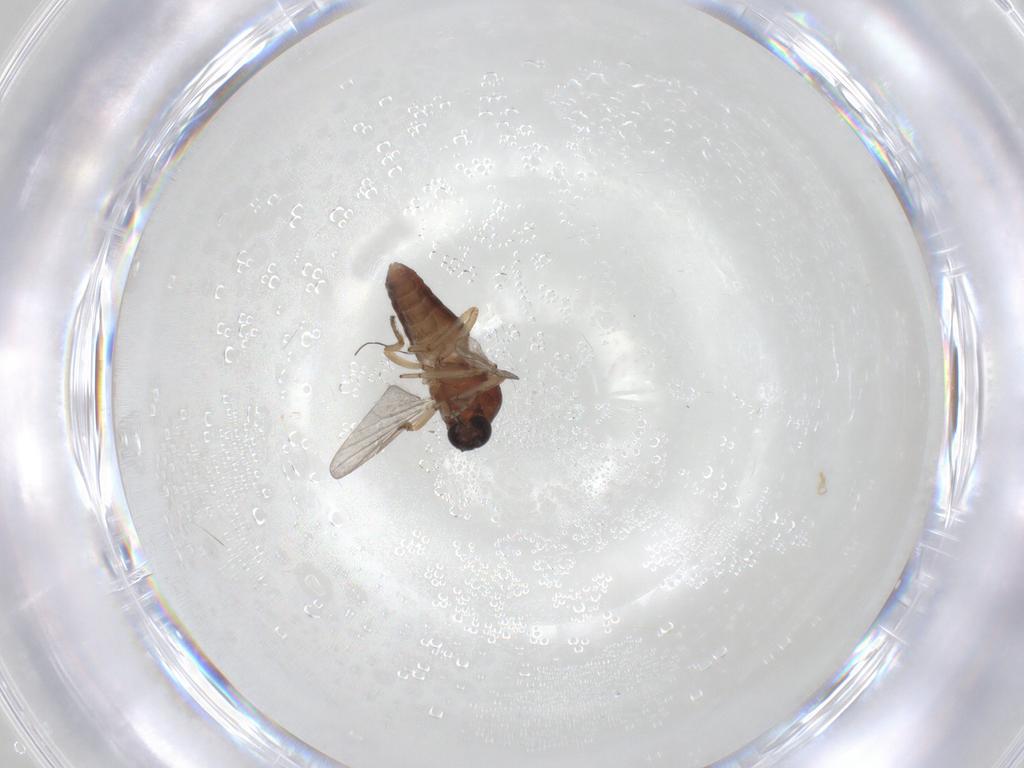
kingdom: Animalia
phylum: Arthropoda
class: Insecta
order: Diptera
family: Ceratopogonidae
